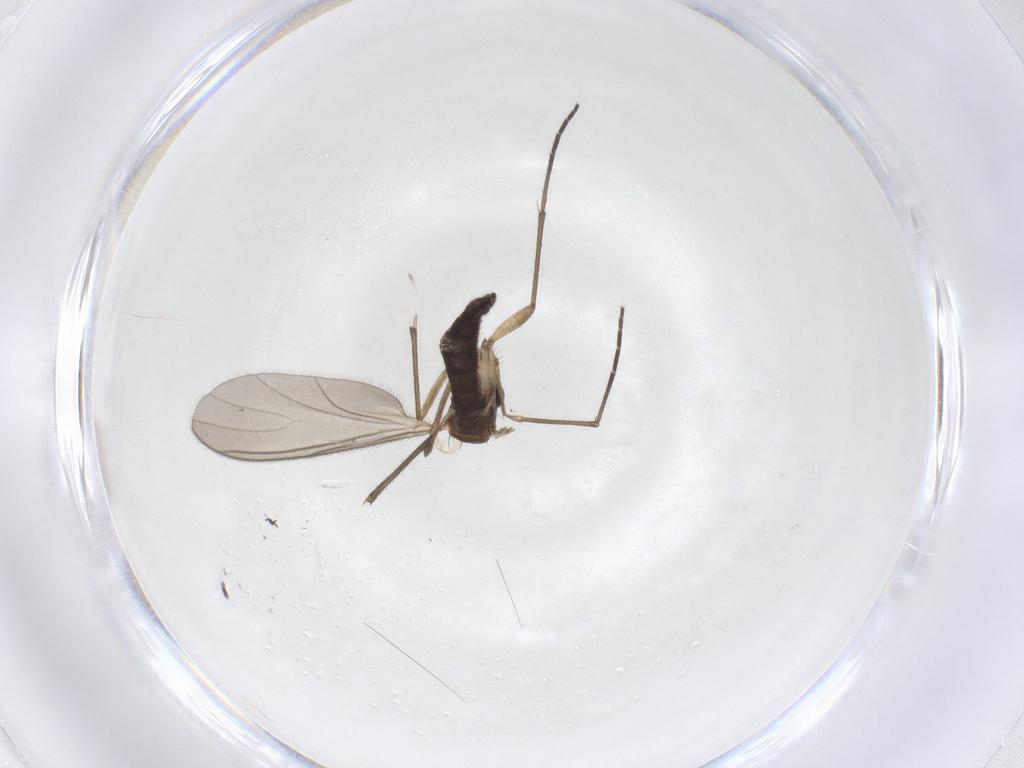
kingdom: Animalia
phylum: Arthropoda
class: Insecta
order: Diptera
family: Sciaridae
